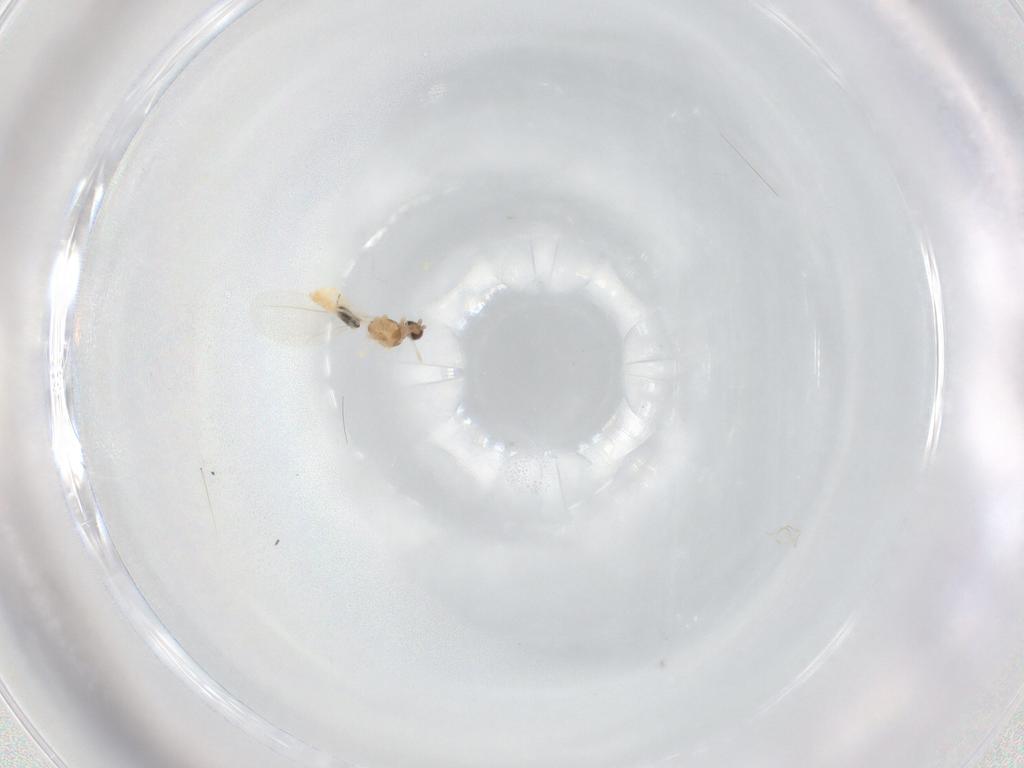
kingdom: Animalia
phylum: Arthropoda
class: Insecta
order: Diptera
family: Cecidomyiidae
